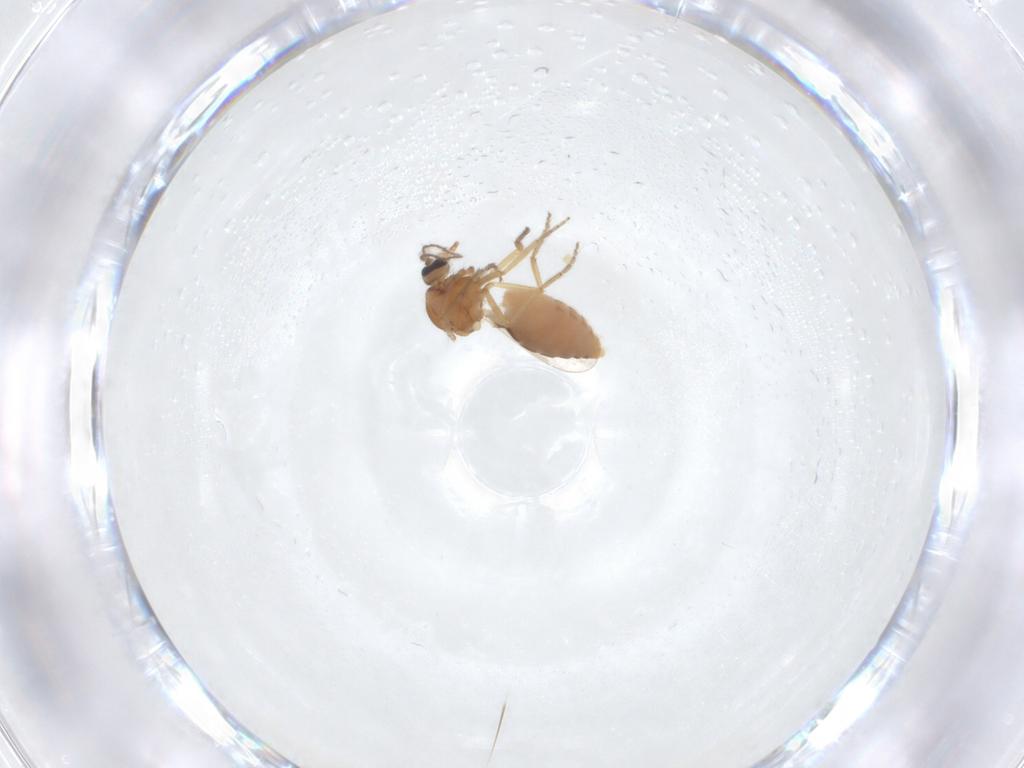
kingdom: Animalia
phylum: Arthropoda
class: Insecta
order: Diptera
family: Ceratopogonidae
